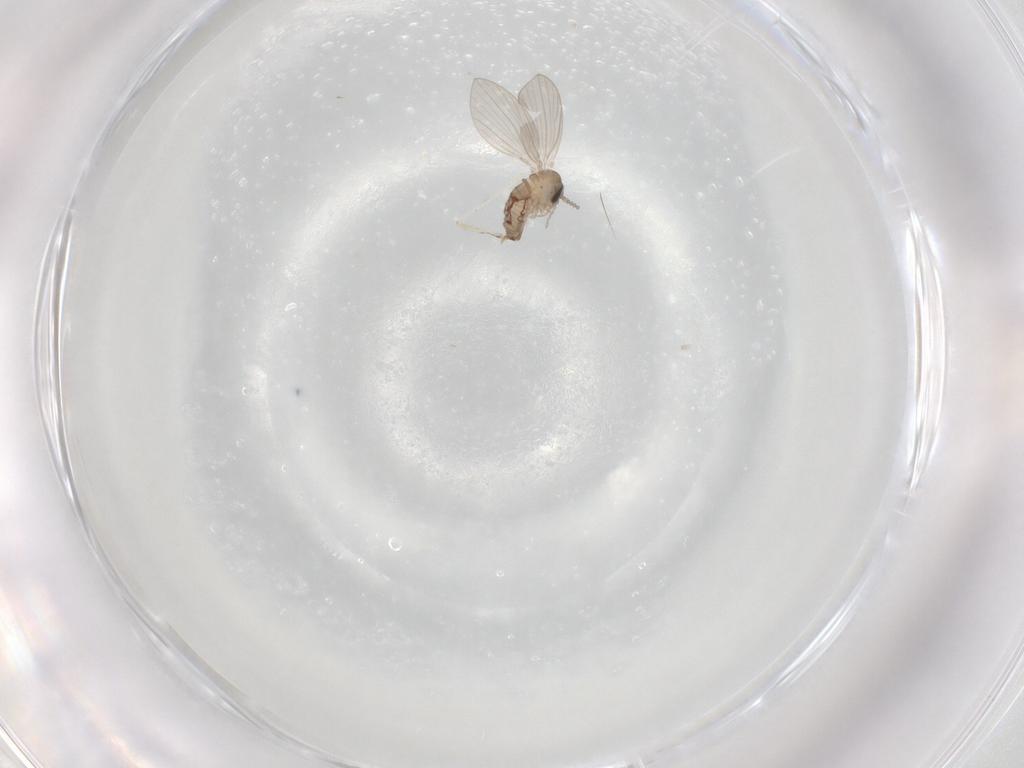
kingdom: Animalia
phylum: Arthropoda
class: Insecta
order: Diptera
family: Psychodidae
